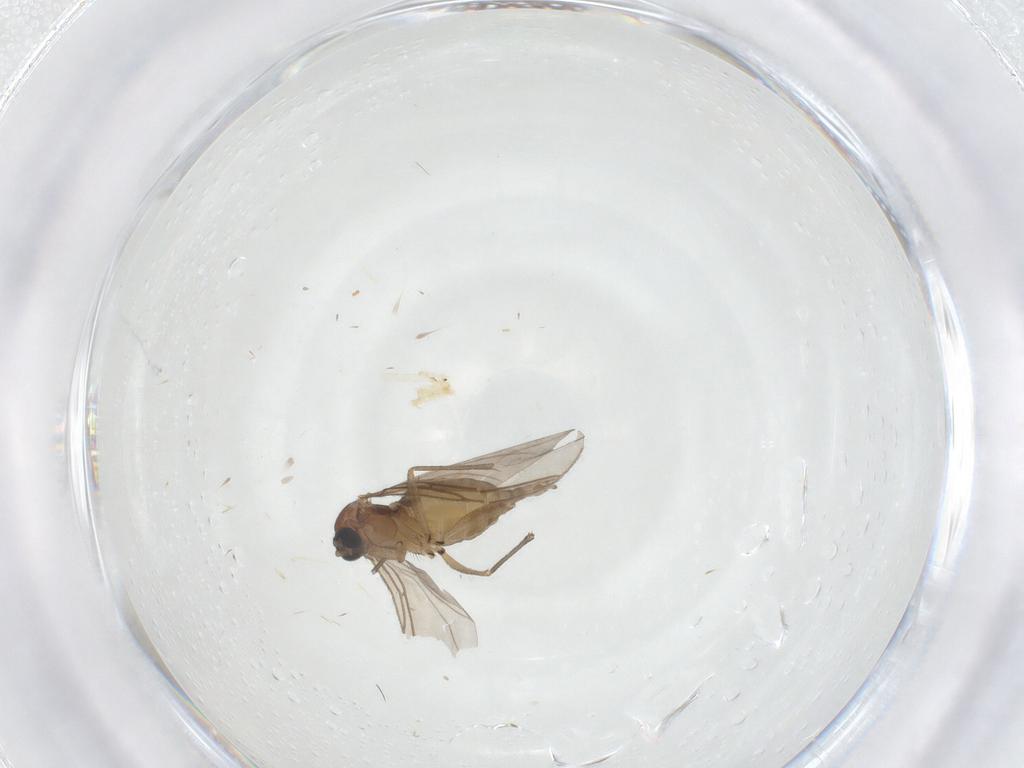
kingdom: Animalia
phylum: Arthropoda
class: Insecta
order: Diptera
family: Sciaridae
